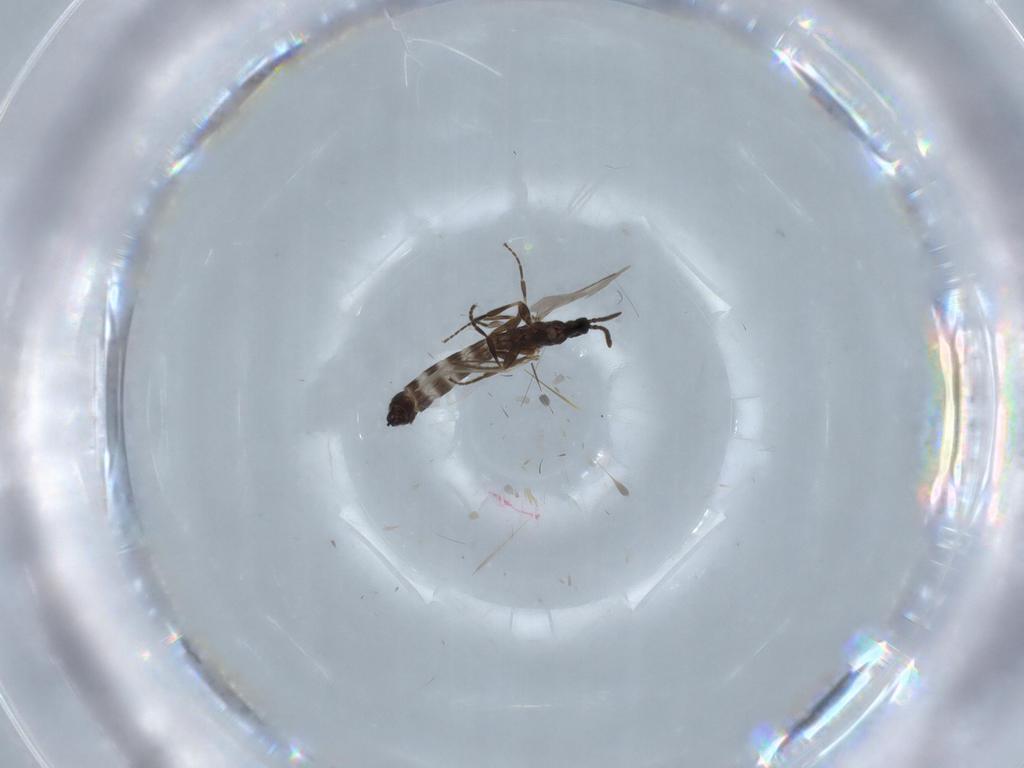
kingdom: Animalia
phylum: Arthropoda
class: Insecta
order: Diptera
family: Scatopsidae
